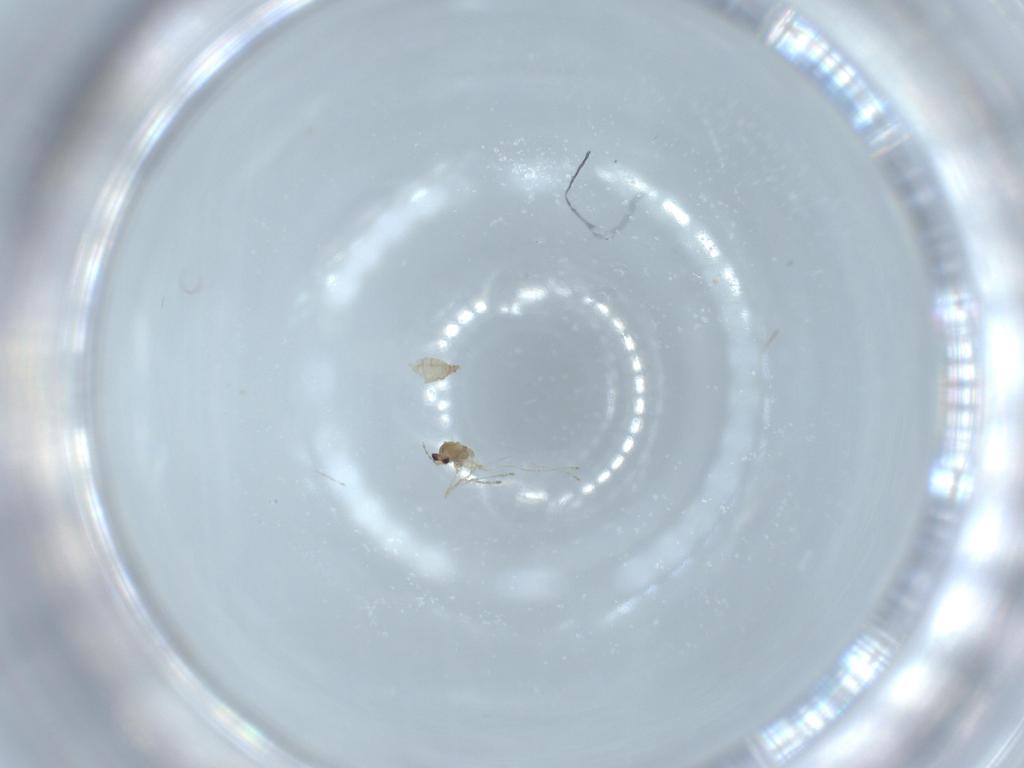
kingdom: Animalia
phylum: Arthropoda
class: Insecta
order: Diptera
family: Cecidomyiidae
